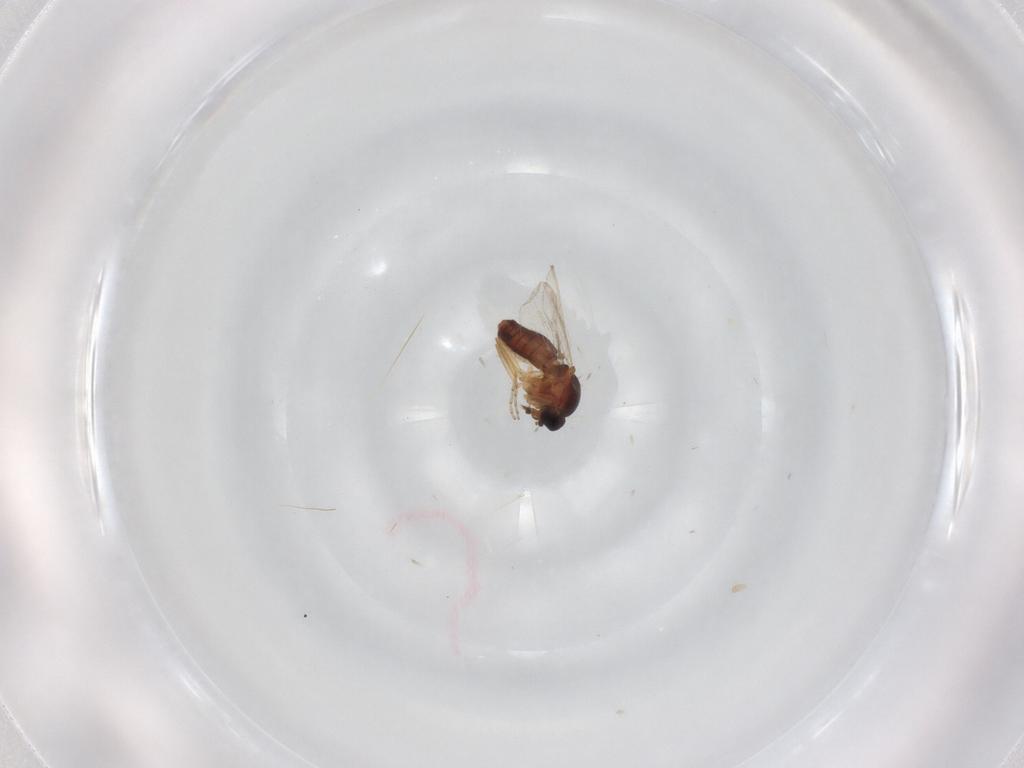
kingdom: Animalia
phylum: Arthropoda
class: Insecta
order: Diptera
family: Ceratopogonidae
